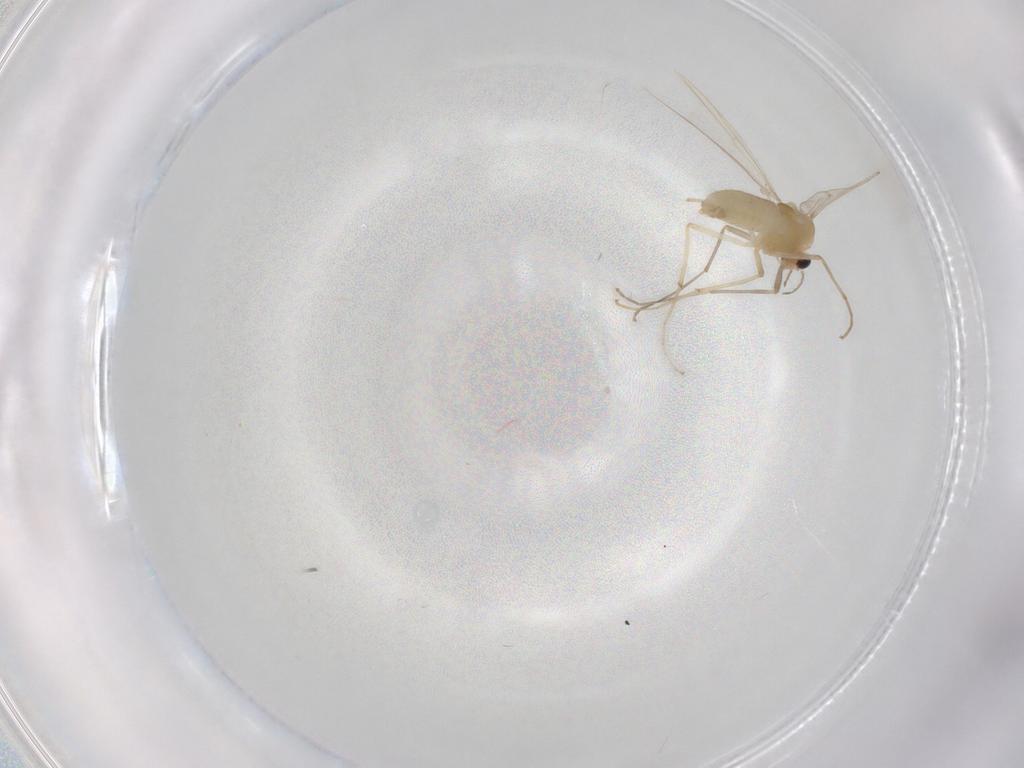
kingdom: Animalia
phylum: Arthropoda
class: Insecta
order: Diptera
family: Chironomidae
